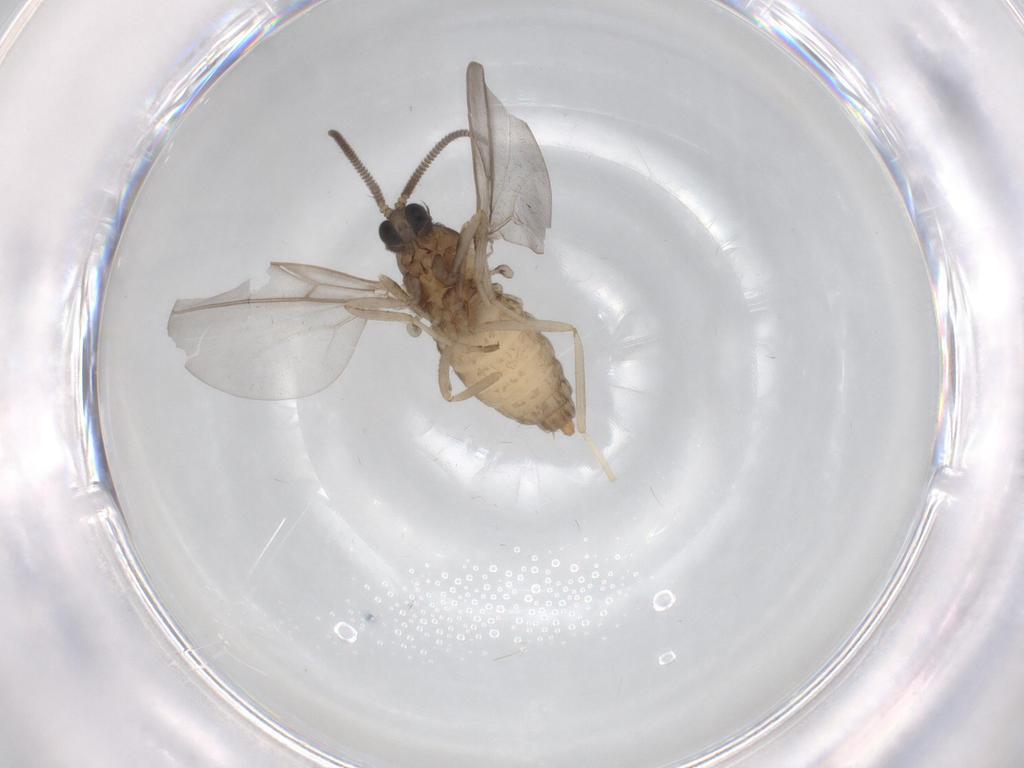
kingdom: Animalia
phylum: Arthropoda
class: Insecta
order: Diptera
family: Cecidomyiidae
